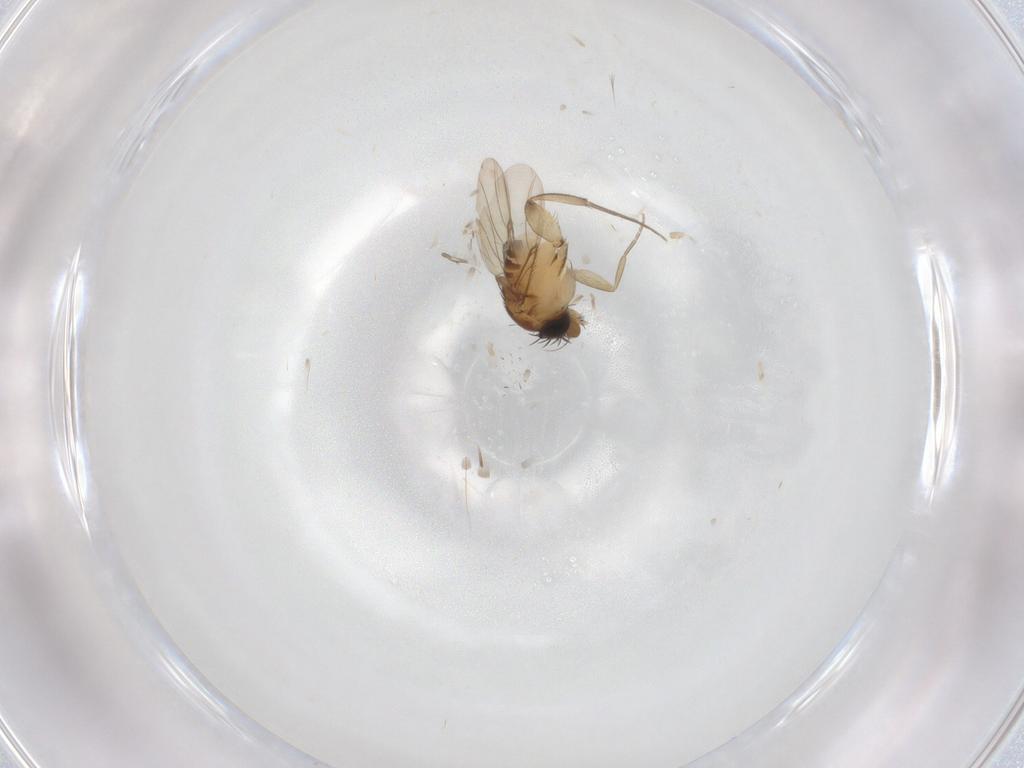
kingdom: Animalia
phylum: Arthropoda
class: Insecta
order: Diptera
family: Phoridae
